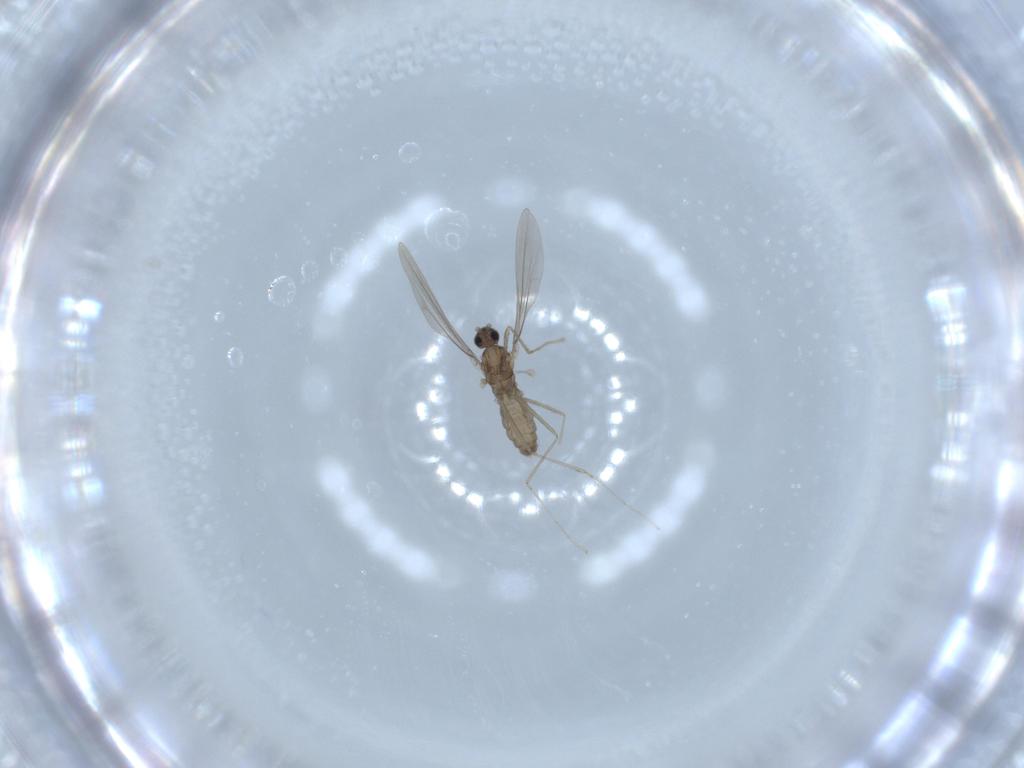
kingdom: Animalia
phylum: Arthropoda
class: Insecta
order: Diptera
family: Cecidomyiidae
